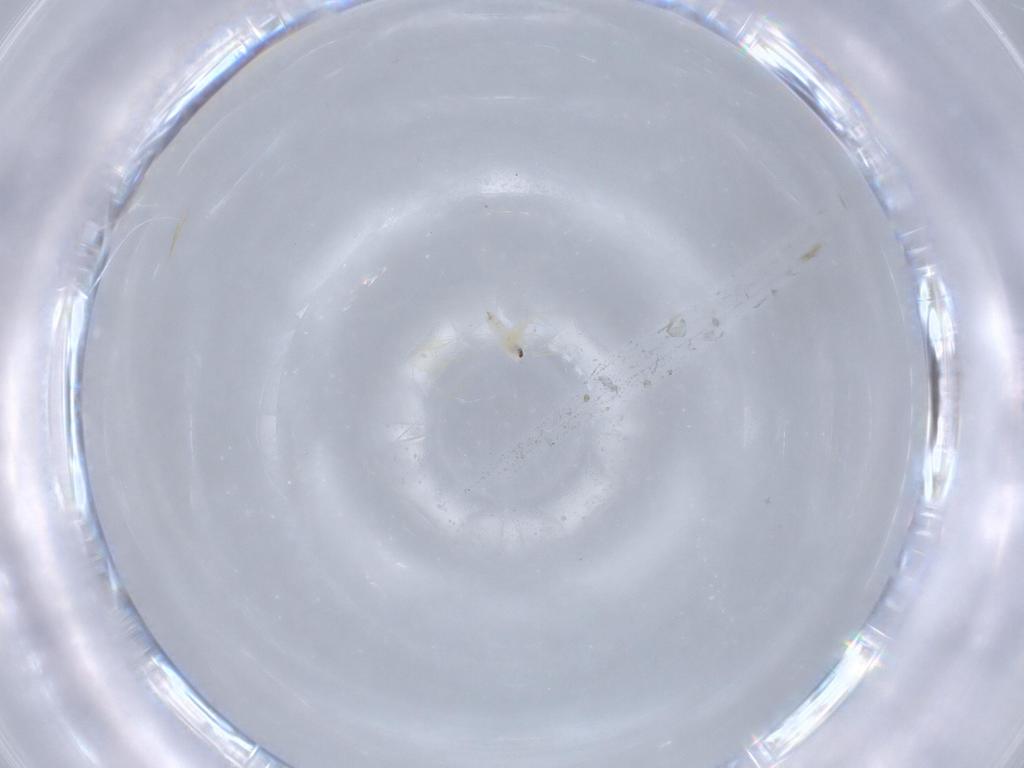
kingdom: Animalia
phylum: Arthropoda
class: Insecta
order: Hemiptera
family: Aleyrodidae
